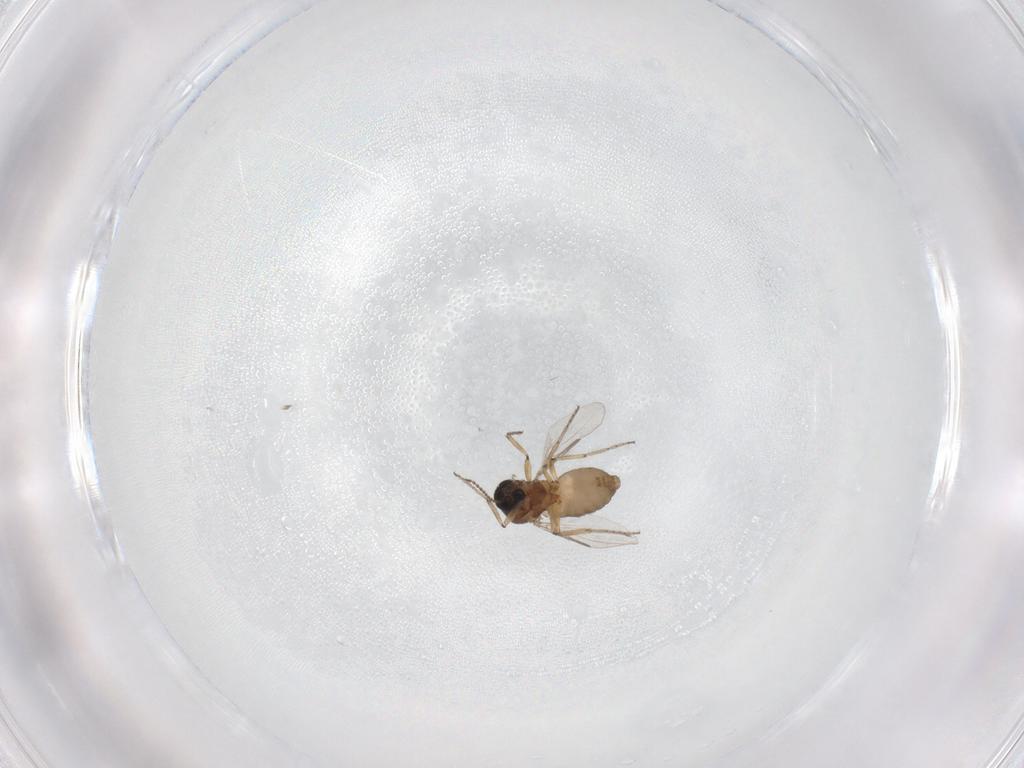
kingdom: Animalia
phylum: Arthropoda
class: Insecta
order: Diptera
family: Ceratopogonidae
